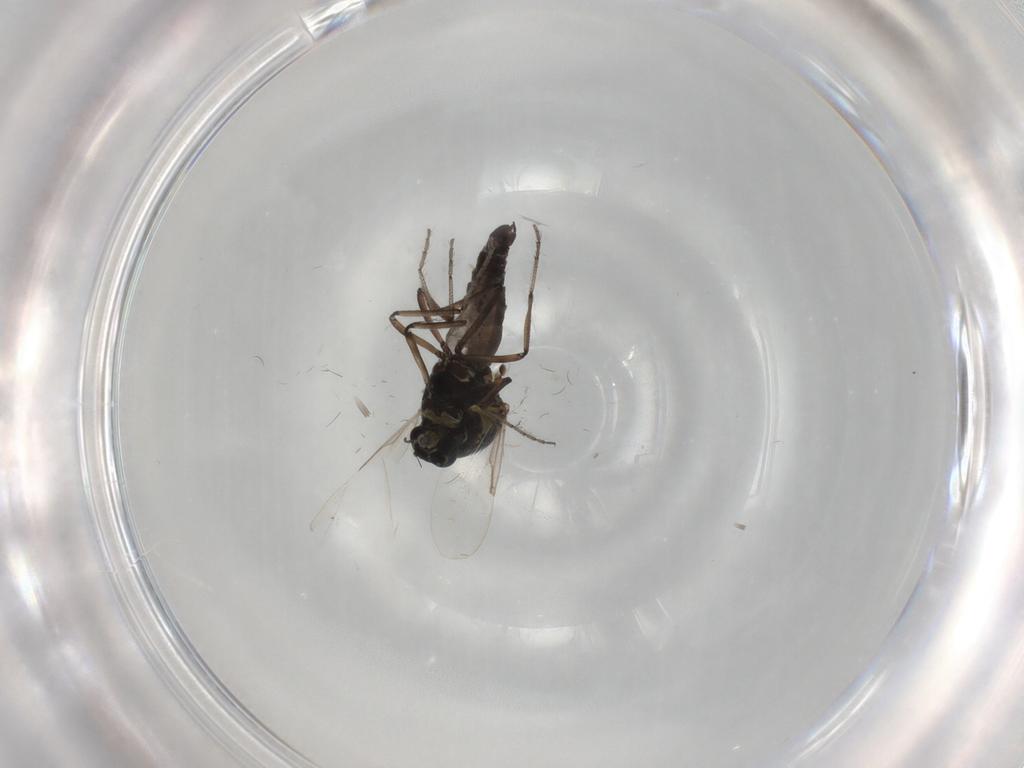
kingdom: Animalia
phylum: Arthropoda
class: Insecta
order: Diptera
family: Ceratopogonidae
